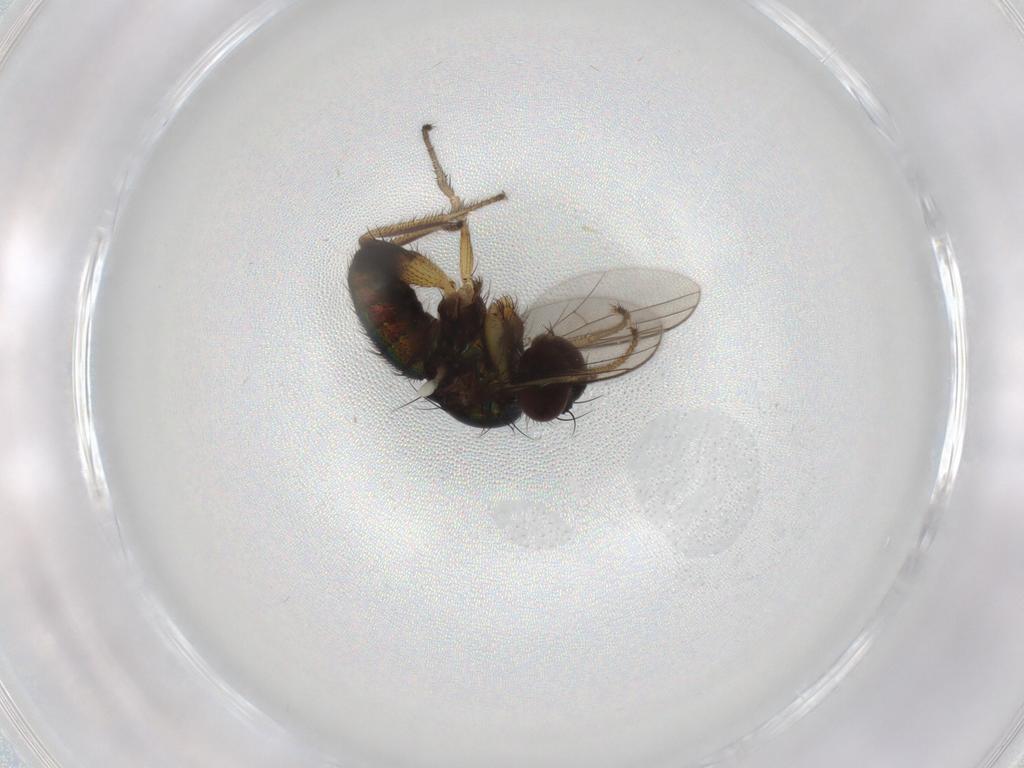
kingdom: Animalia
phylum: Arthropoda
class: Insecta
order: Diptera
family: Dolichopodidae
